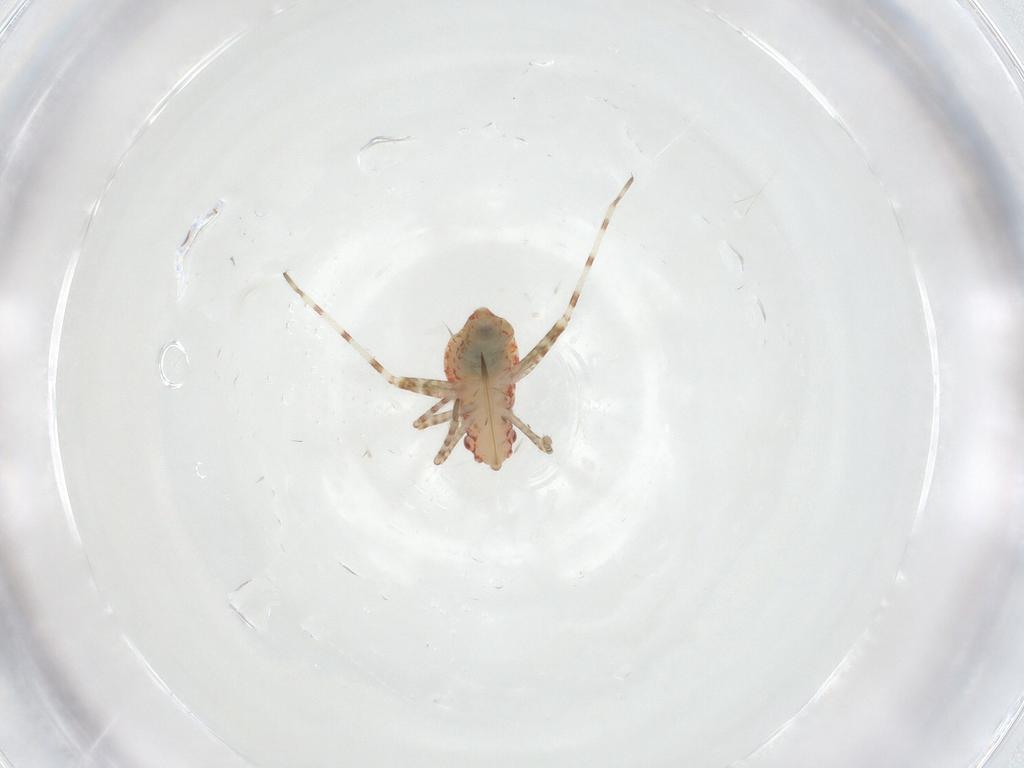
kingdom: Animalia
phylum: Arthropoda
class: Insecta
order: Hemiptera
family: Miridae
